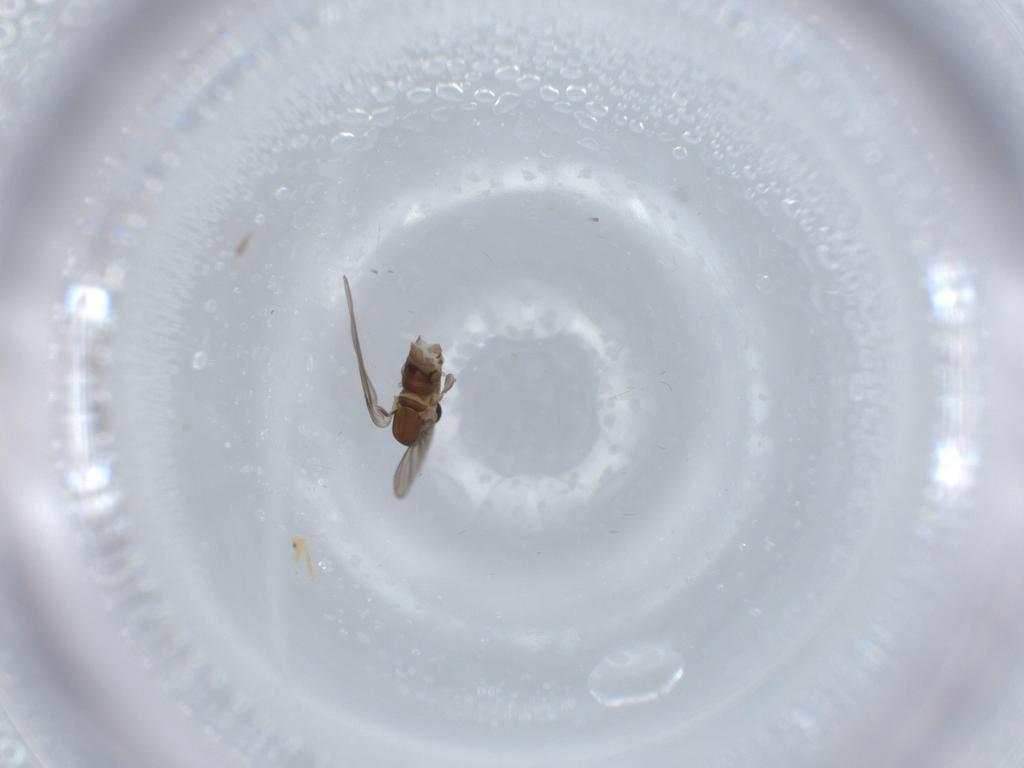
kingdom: Animalia
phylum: Arthropoda
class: Insecta
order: Diptera
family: Psychodidae
